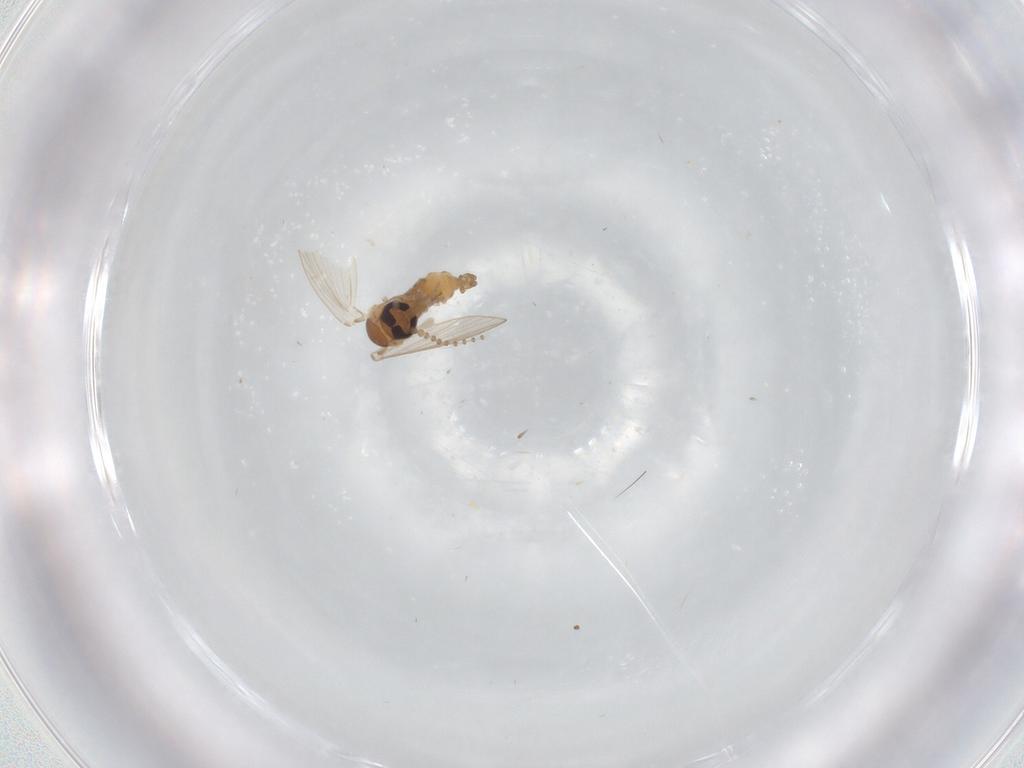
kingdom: Animalia
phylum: Arthropoda
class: Insecta
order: Diptera
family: Psychodidae
